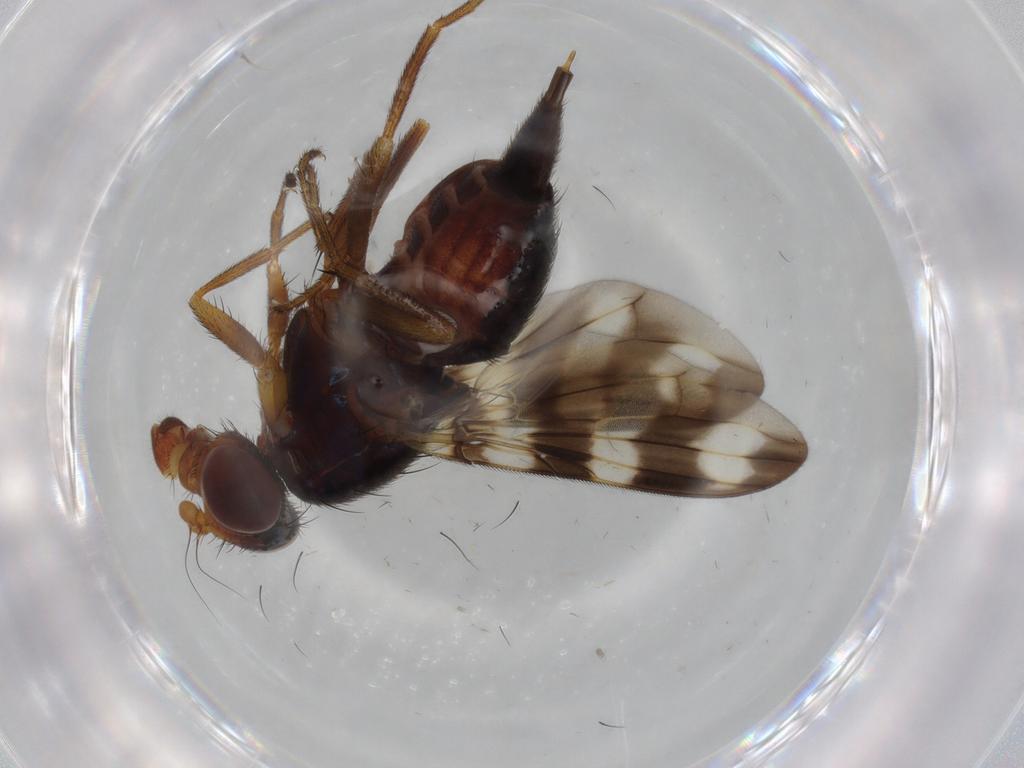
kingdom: Animalia
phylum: Arthropoda
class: Insecta
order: Diptera
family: Ulidiidae
